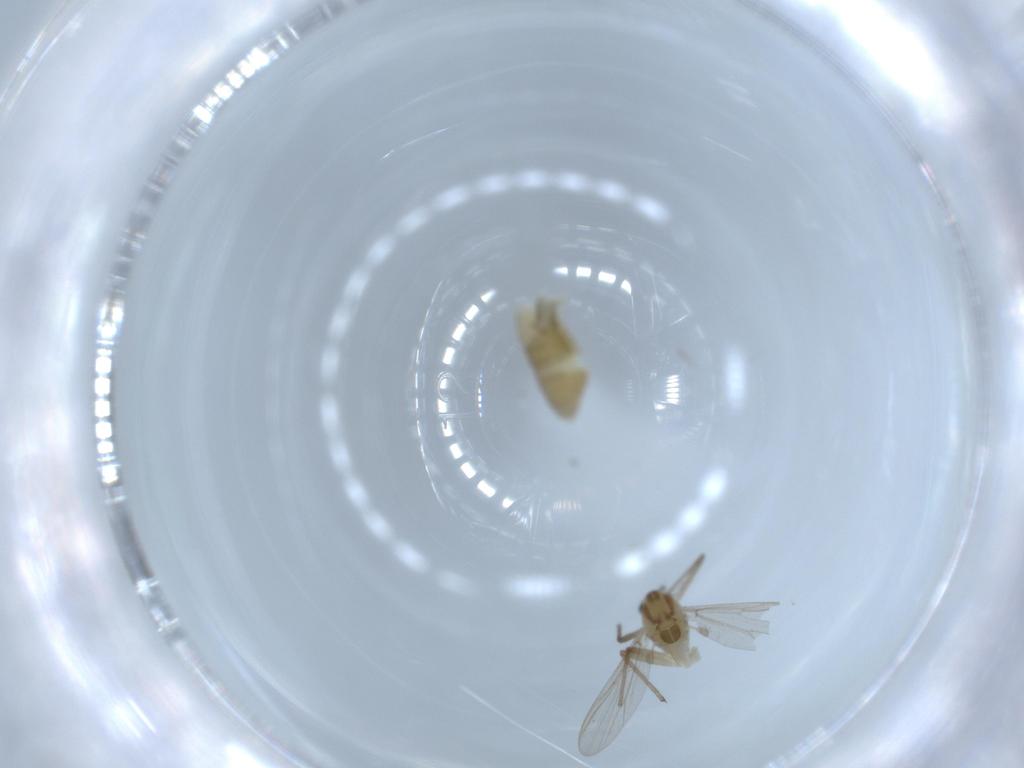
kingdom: Animalia
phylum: Arthropoda
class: Insecta
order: Diptera
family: Chironomidae
